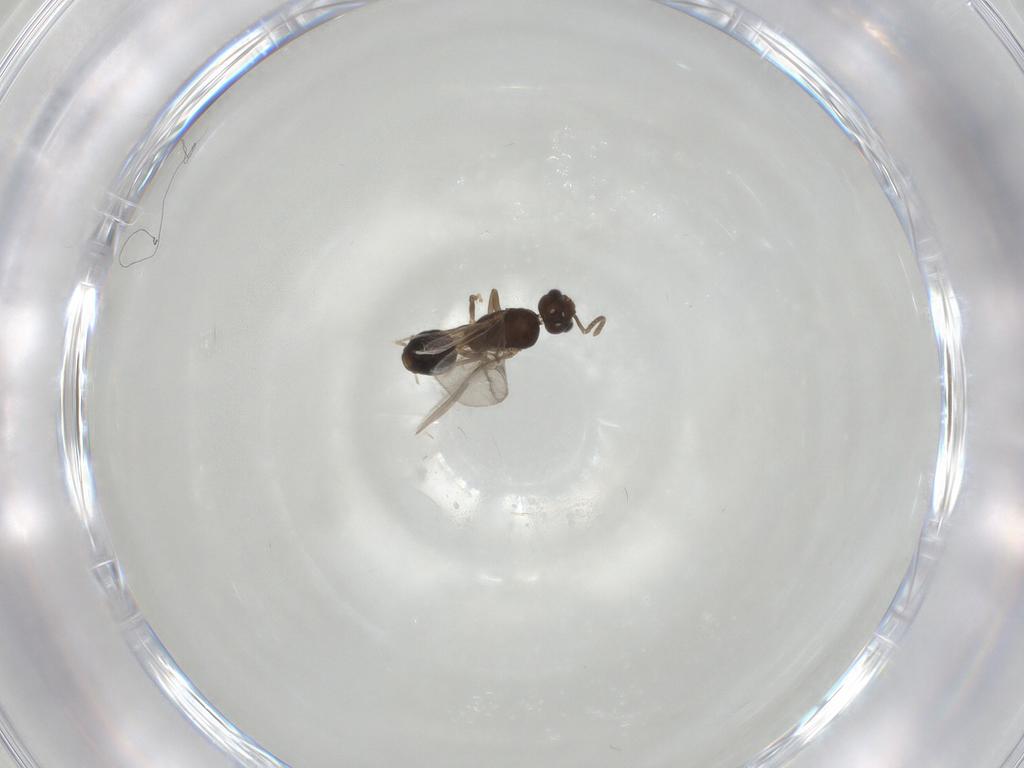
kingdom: Animalia
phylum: Arthropoda
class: Insecta
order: Hymenoptera
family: Formicidae
